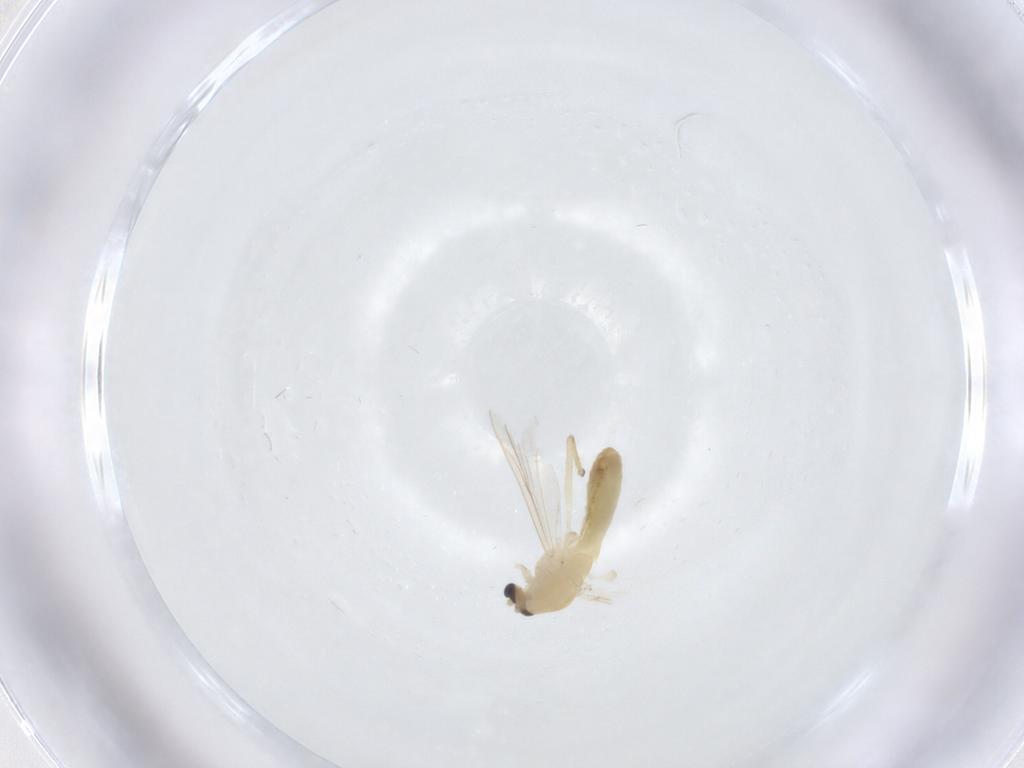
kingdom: Animalia
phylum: Arthropoda
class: Insecta
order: Diptera
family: Chironomidae
